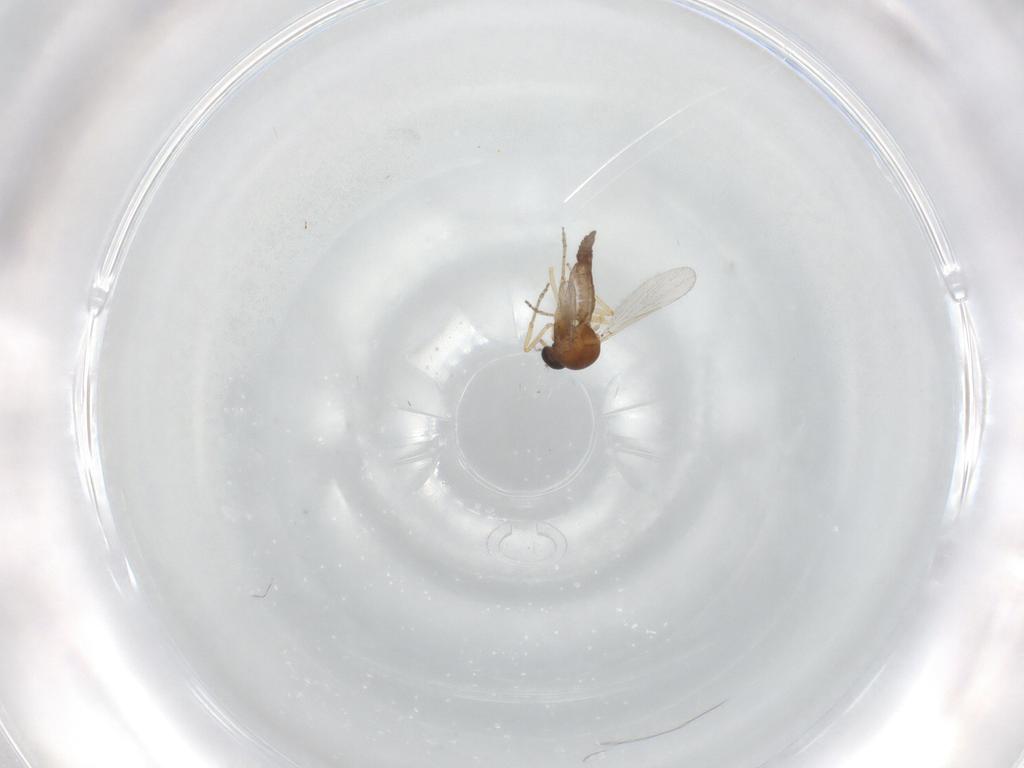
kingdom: Animalia
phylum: Arthropoda
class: Insecta
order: Diptera
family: Ceratopogonidae
